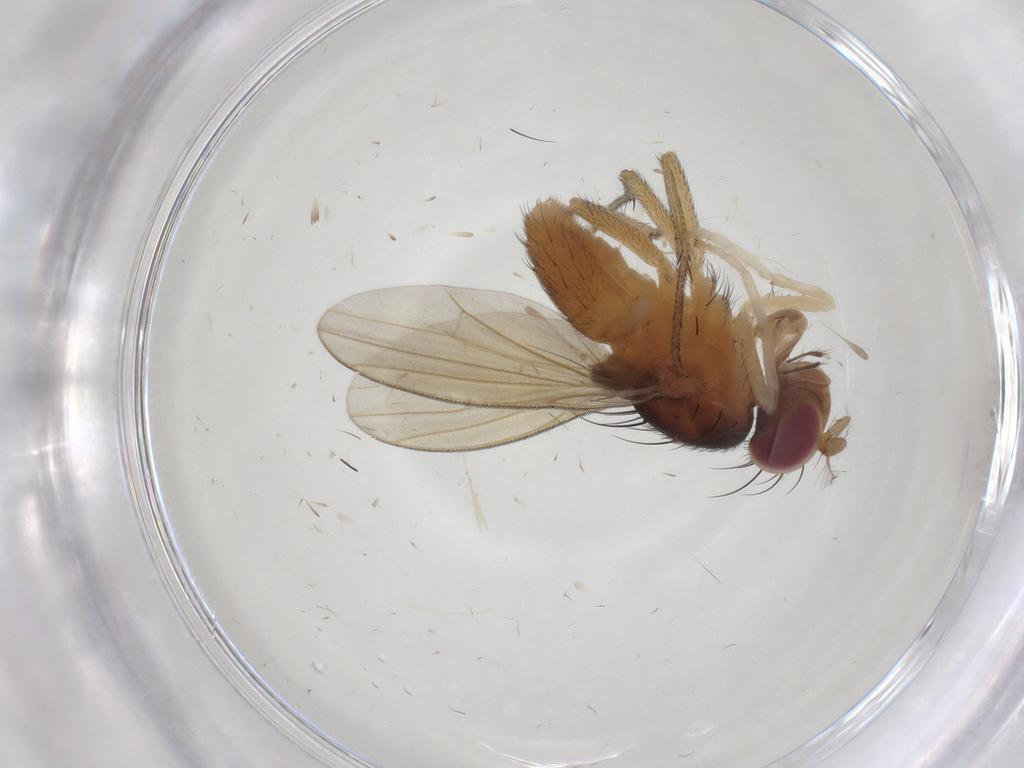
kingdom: Animalia
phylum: Arthropoda
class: Insecta
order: Diptera
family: Lauxaniidae
